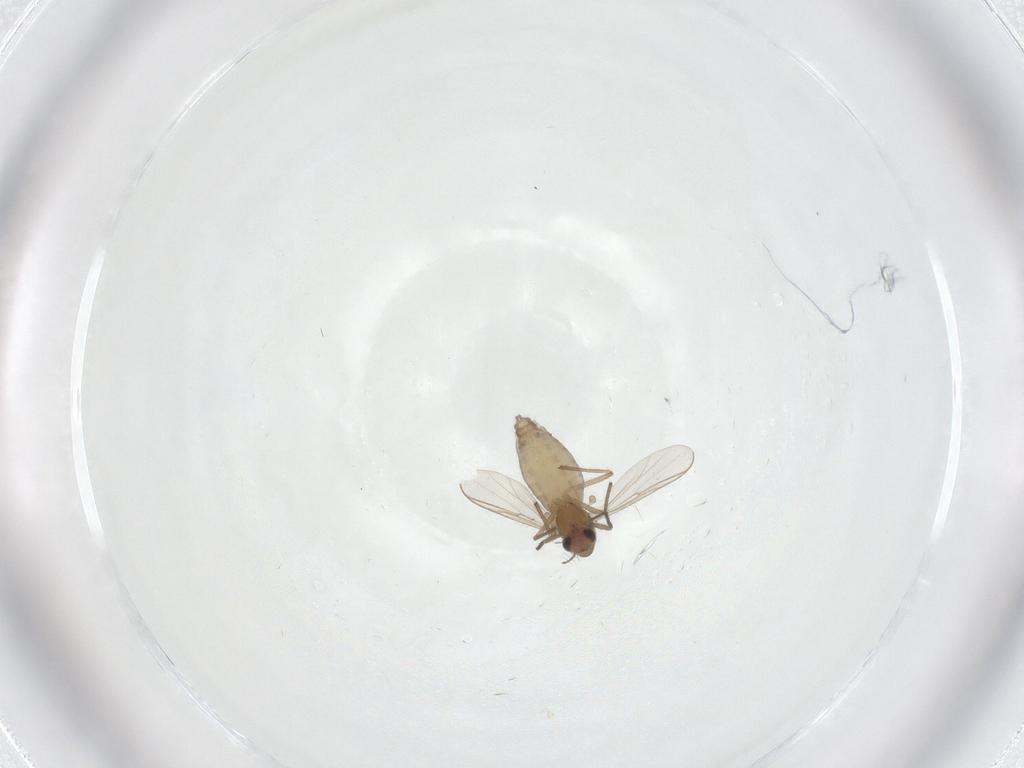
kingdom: Animalia
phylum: Arthropoda
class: Insecta
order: Diptera
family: Chironomidae
